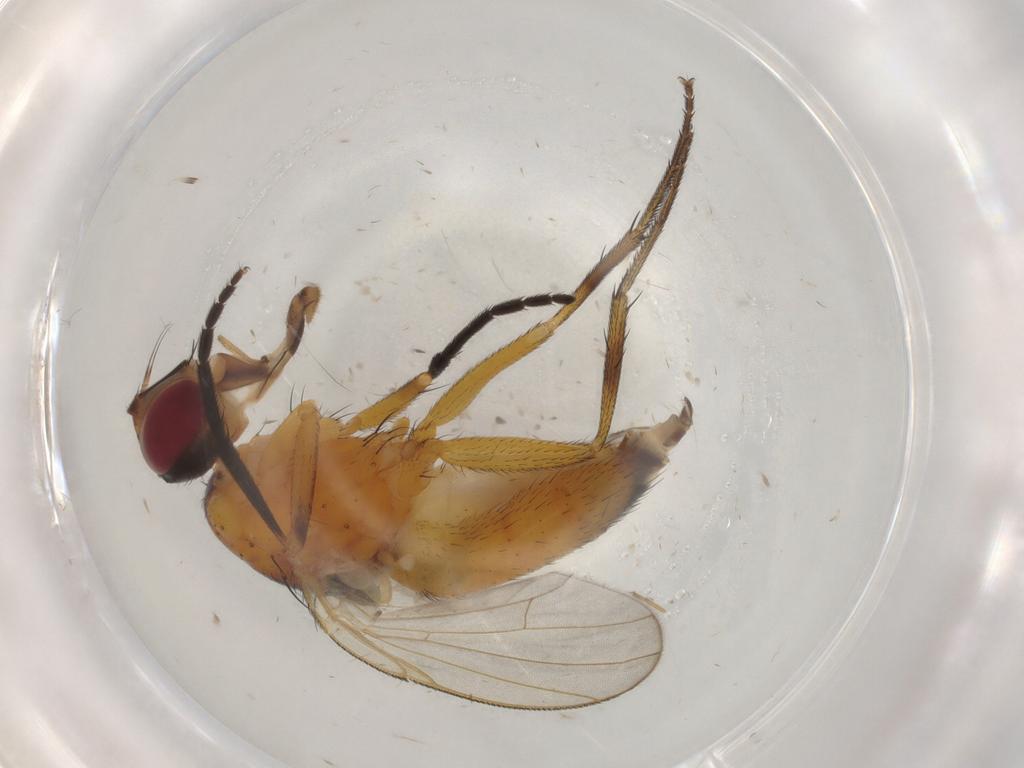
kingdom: Animalia
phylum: Arthropoda
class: Insecta
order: Diptera
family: Muscidae
